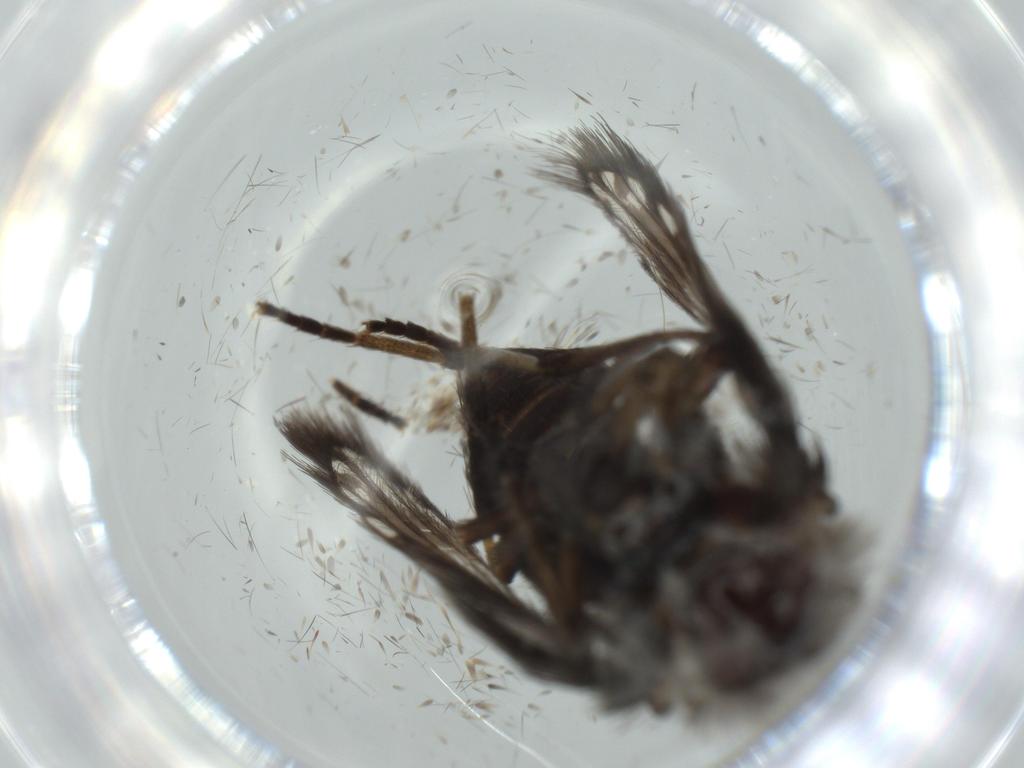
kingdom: Animalia
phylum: Arthropoda
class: Insecta
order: Diptera
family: Psychodidae
